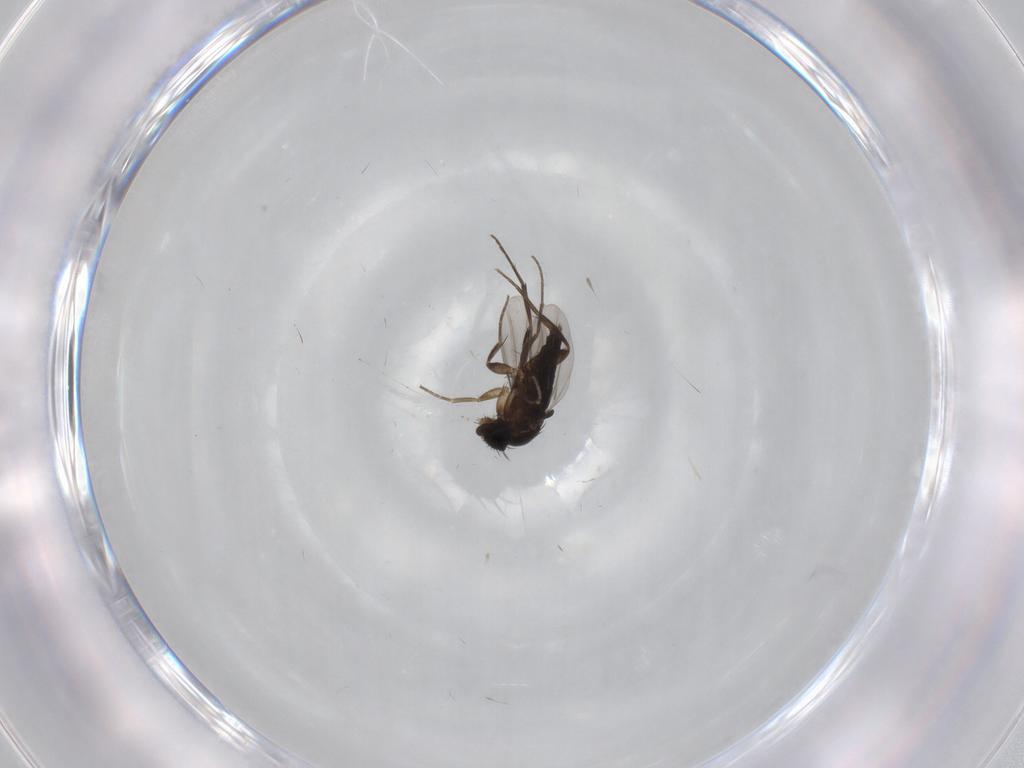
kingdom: Animalia
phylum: Arthropoda
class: Insecta
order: Diptera
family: Phoridae
